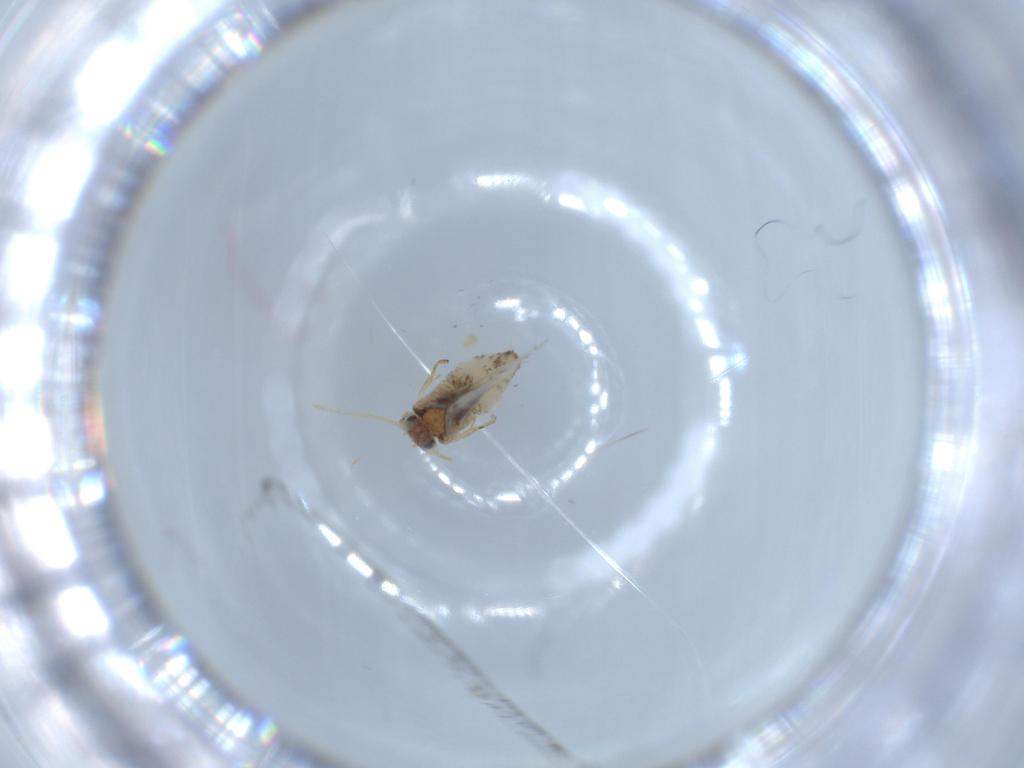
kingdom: Animalia
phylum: Arthropoda
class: Insecta
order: Lepidoptera
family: Nepticulidae
